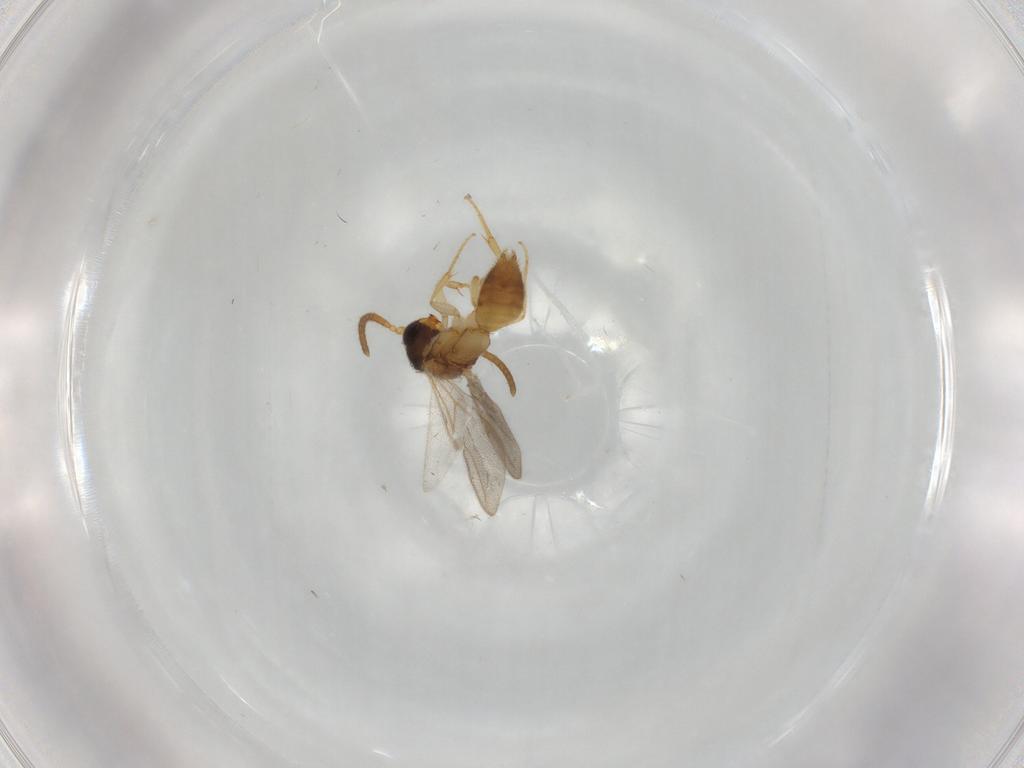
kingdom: Animalia
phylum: Arthropoda
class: Insecta
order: Hymenoptera
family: Bethylidae
